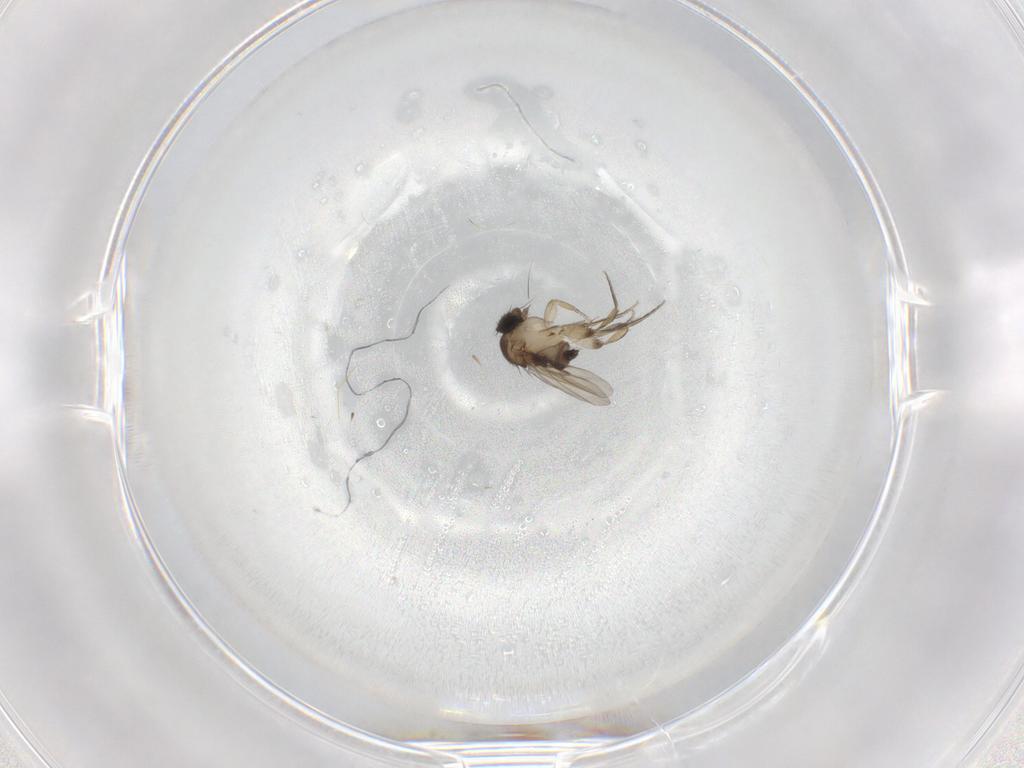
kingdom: Animalia
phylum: Arthropoda
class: Insecta
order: Diptera
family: Phoridae
